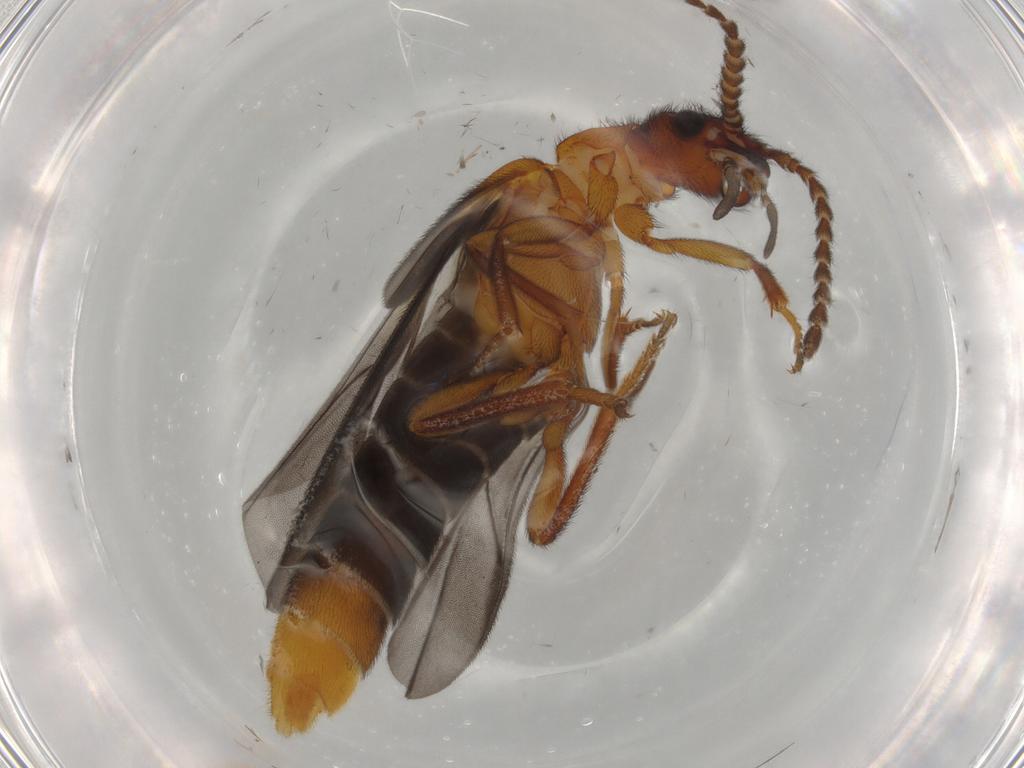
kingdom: Animalia
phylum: Arthropoda
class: Insecta
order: Coleoptera
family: Omethidae
